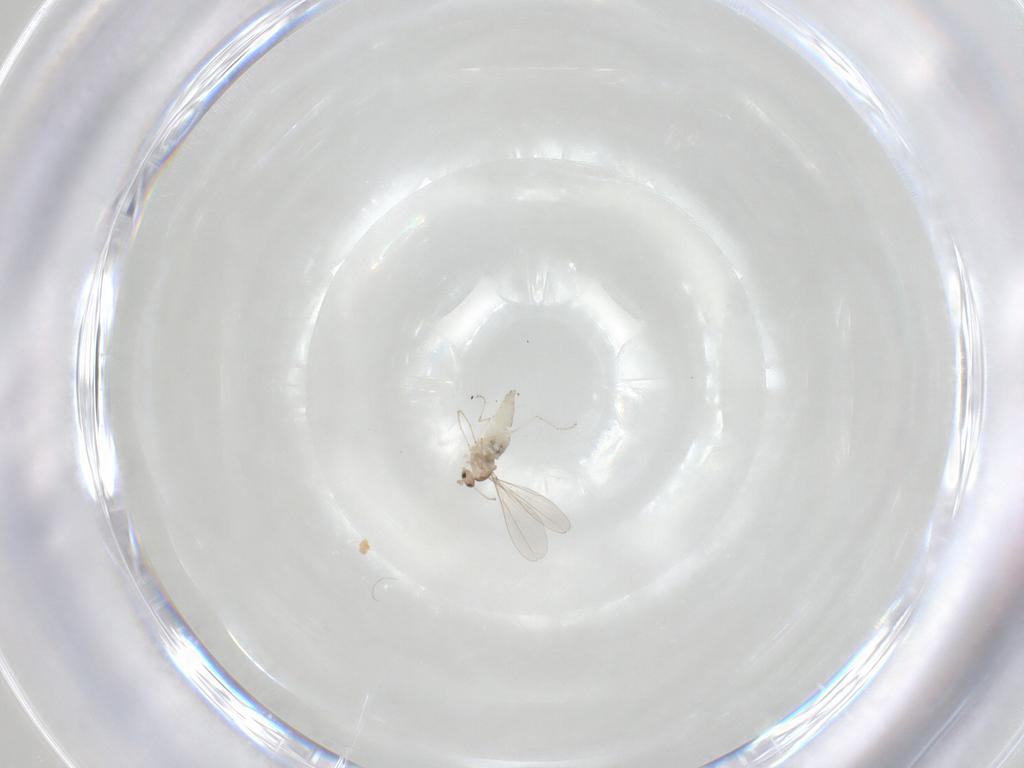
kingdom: Animalia
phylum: Arthropoda
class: Insecta
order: Diptera
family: Cecidomyiidae
